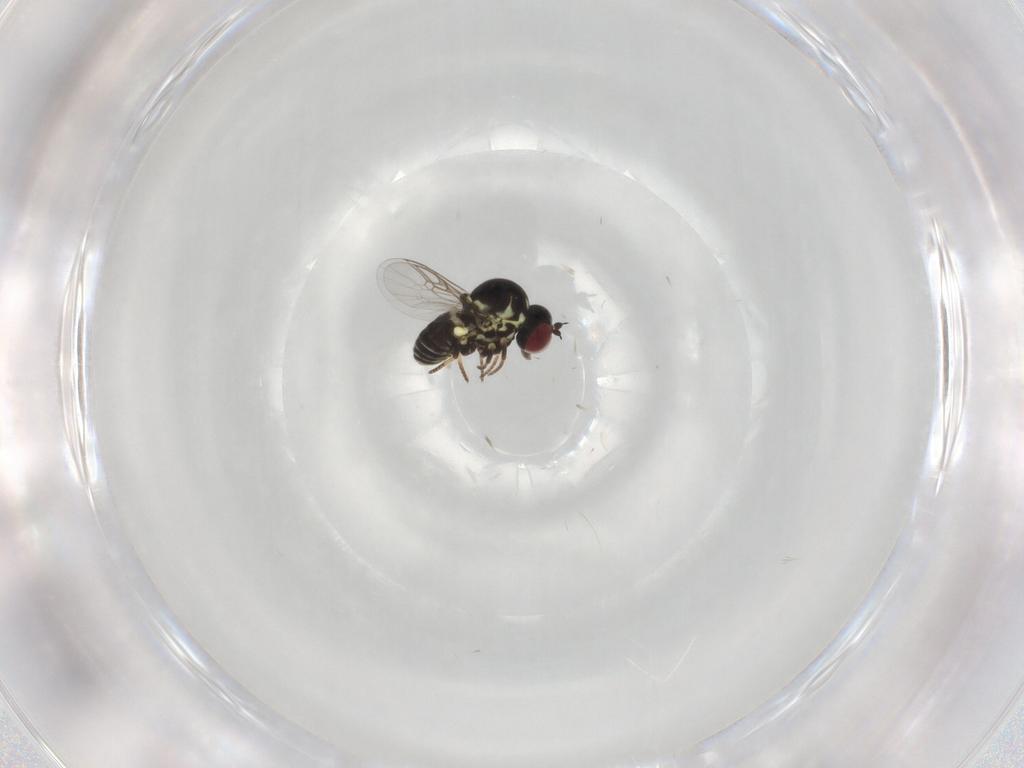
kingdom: Animalia
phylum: Arthropoda
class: Insecta
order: Diptera
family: Mythicomyiidae
